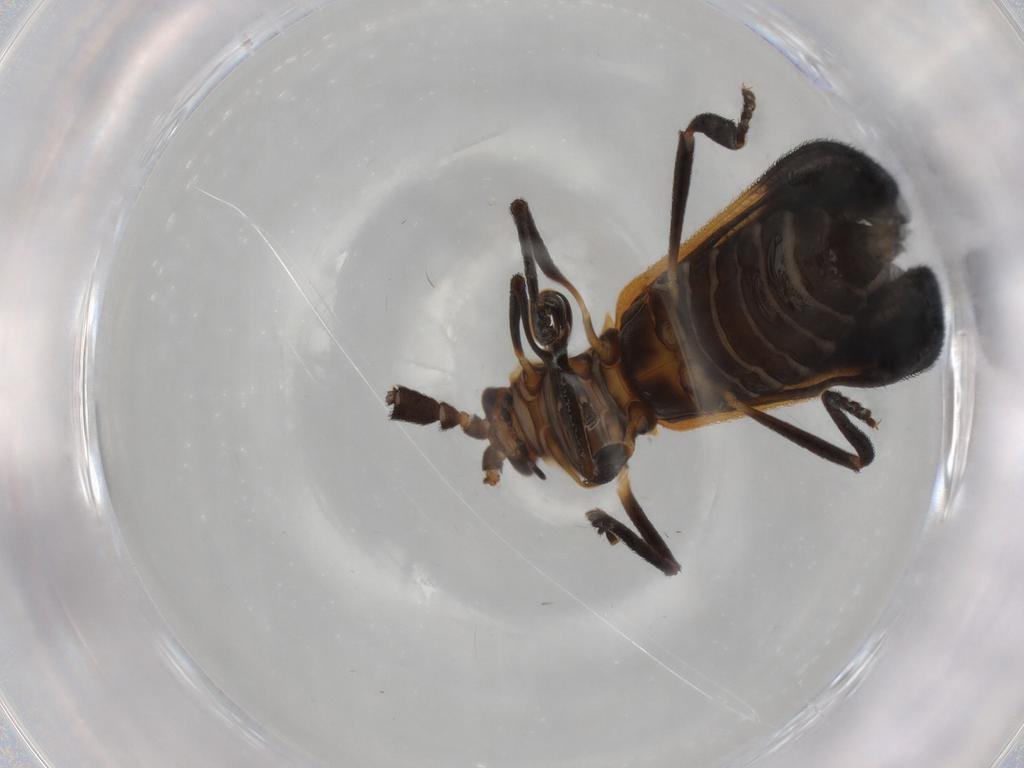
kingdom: Animalia
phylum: Arthropoda
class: Insecta
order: Coleoptera
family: Lycidae
